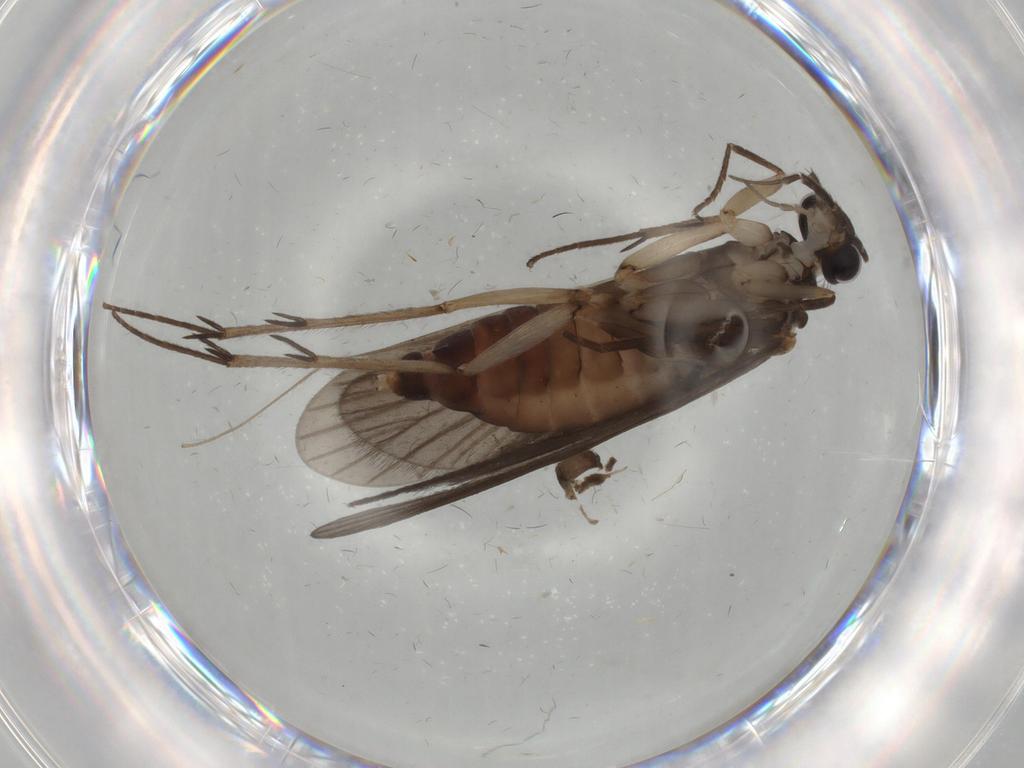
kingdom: Animalia
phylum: Arthropoda
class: Insecta
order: Trichoptera
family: Philopotamidae
